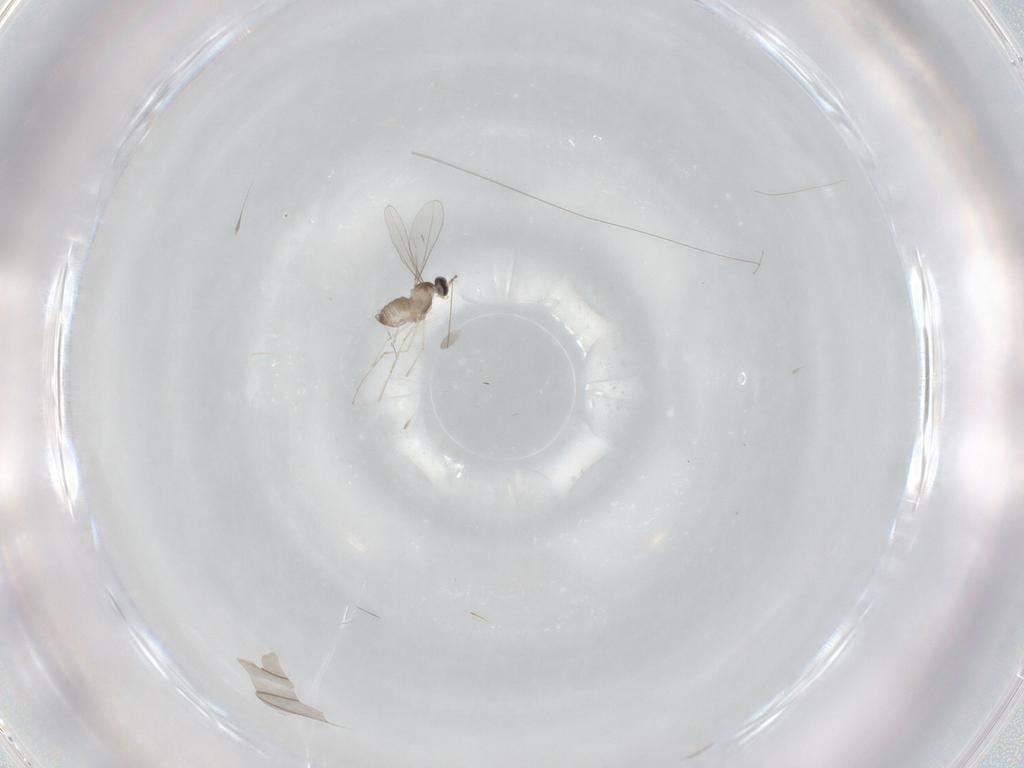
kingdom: Animalia
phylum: Arthropoda
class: Insecta
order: Diptera
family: Cecidomyiidae
